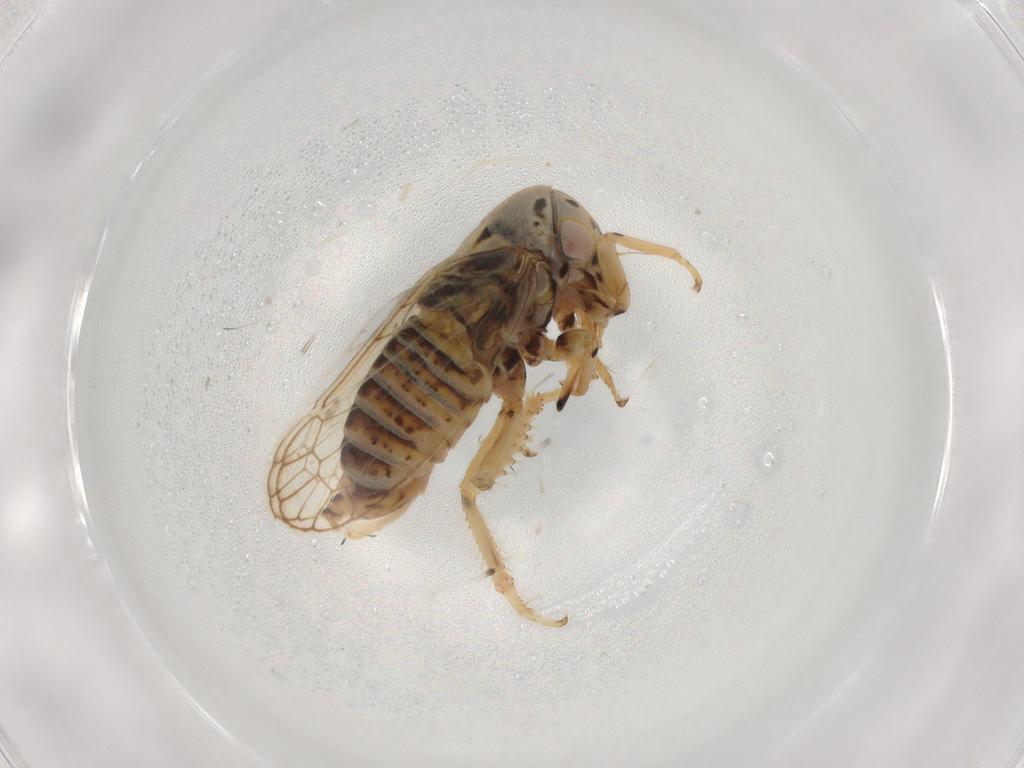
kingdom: Animalia
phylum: Arthropoda
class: Insecta
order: Hemiptera
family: Cicadellidae
